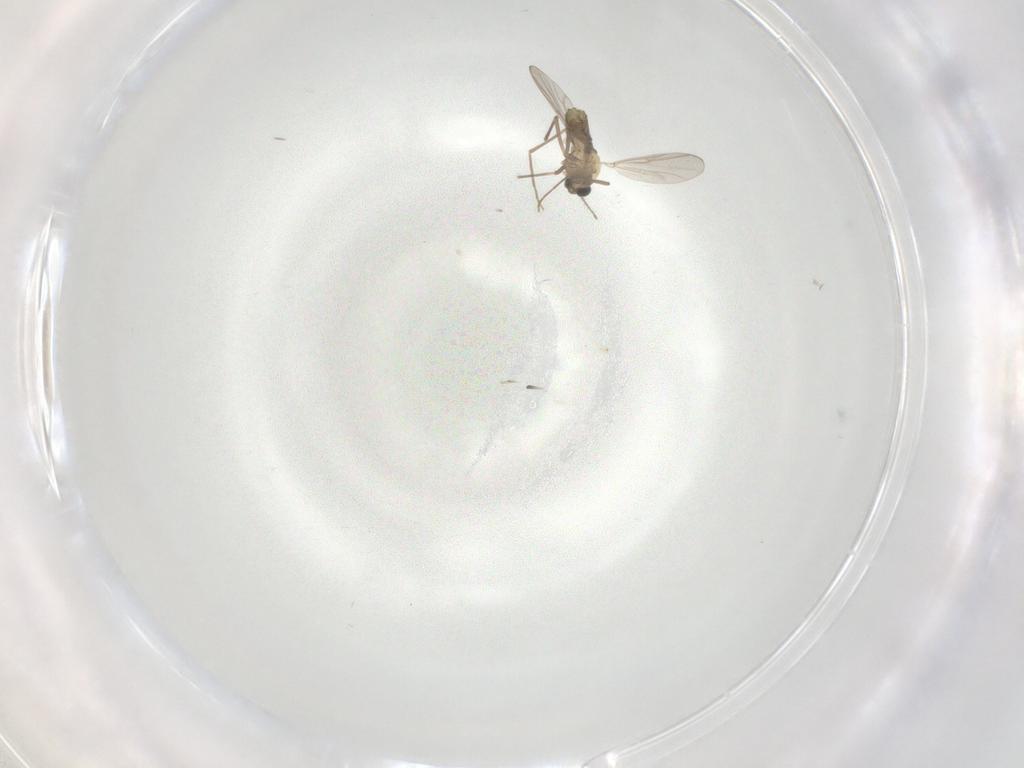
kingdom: Animalia
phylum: Arthropoda
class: Insecta
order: Diptera
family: Chironomidae
